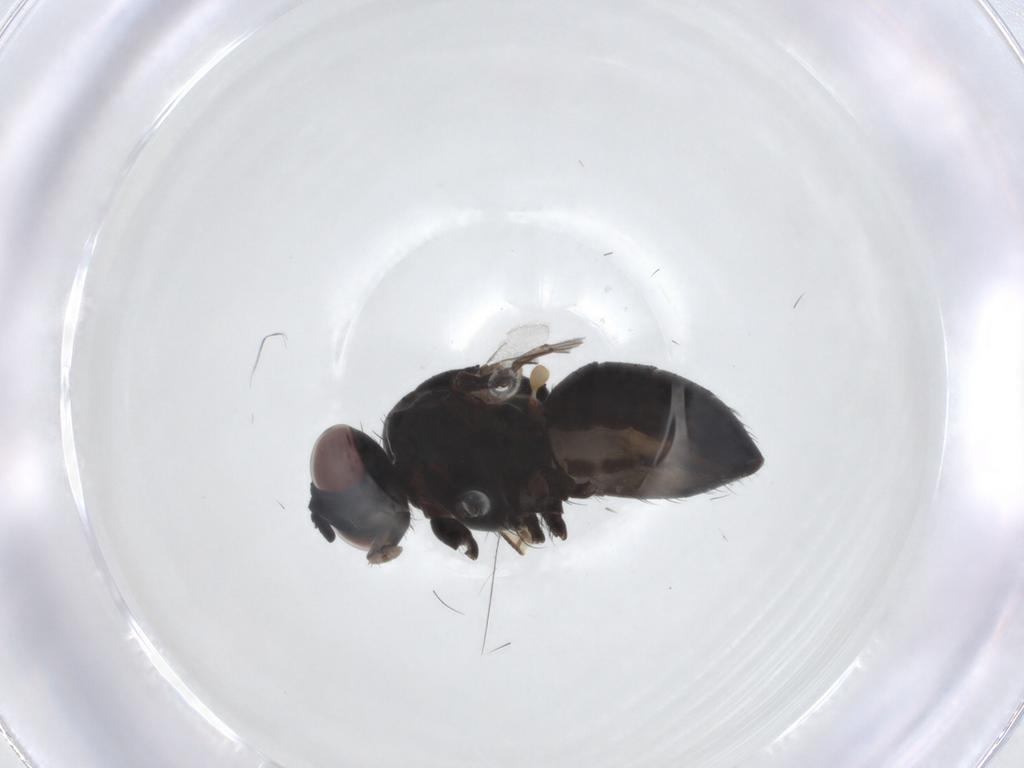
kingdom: Animalia
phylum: Arthropoda
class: Insecta
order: Diptera
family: Muscidae
